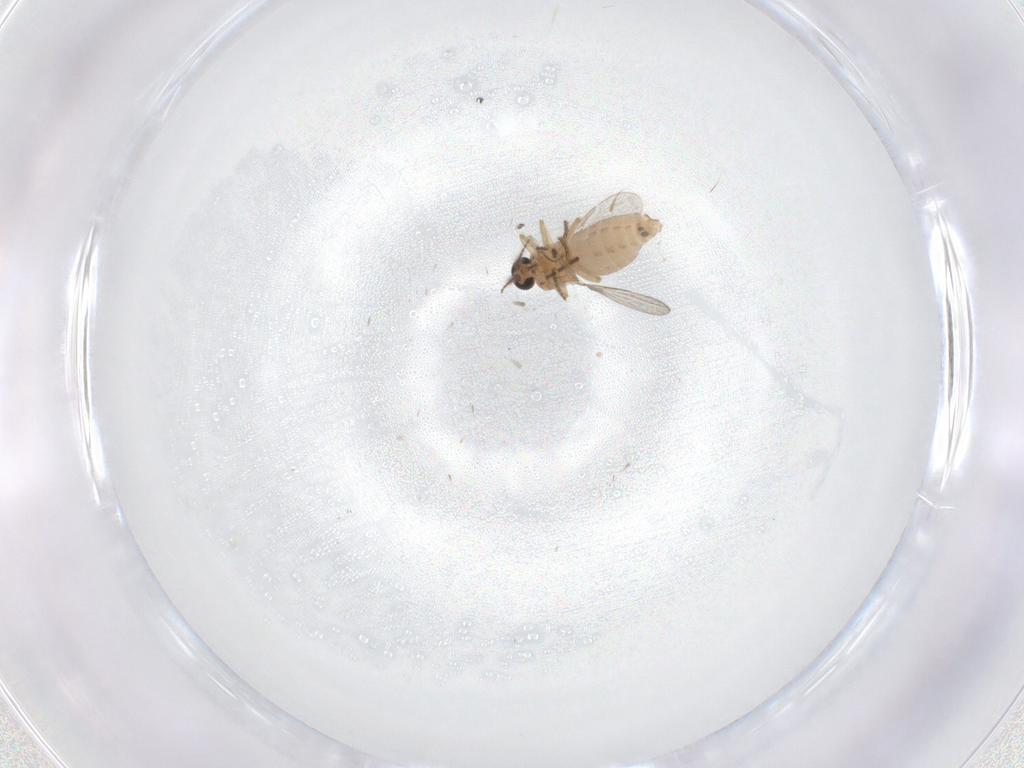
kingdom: Animalia
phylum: Arthropoda
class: Insecta
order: Diptera
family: Ceratopogonidae
